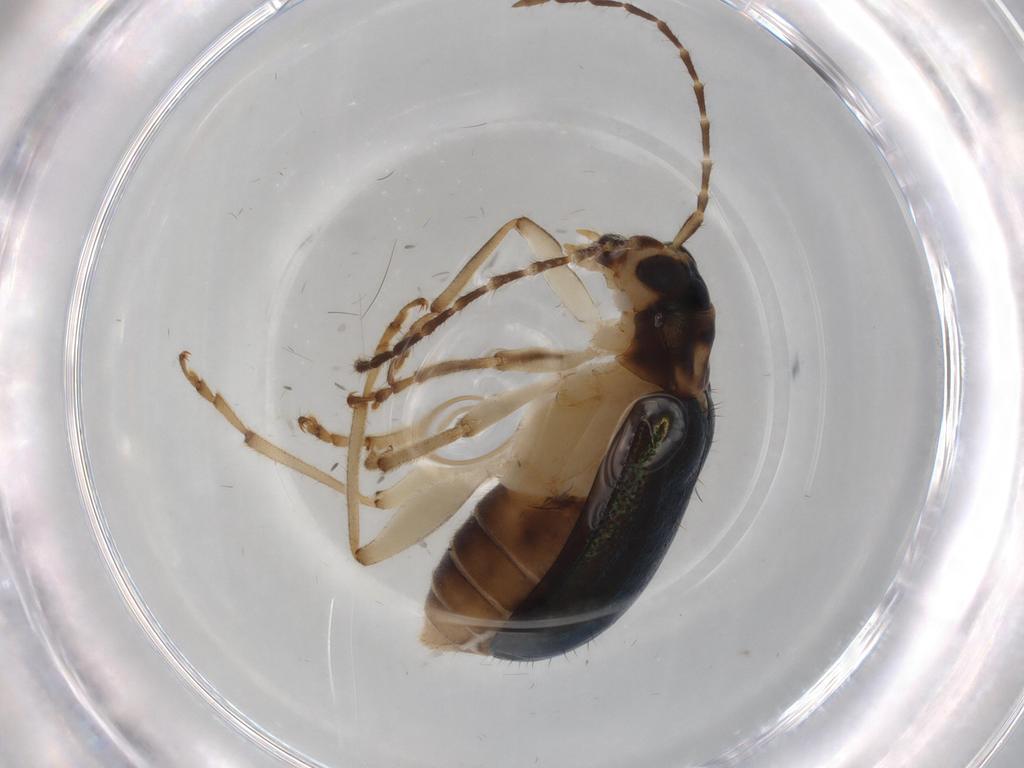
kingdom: Animalia
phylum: Arthropoda
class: Insecta
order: Coleoptera
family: Chrysomelidae
